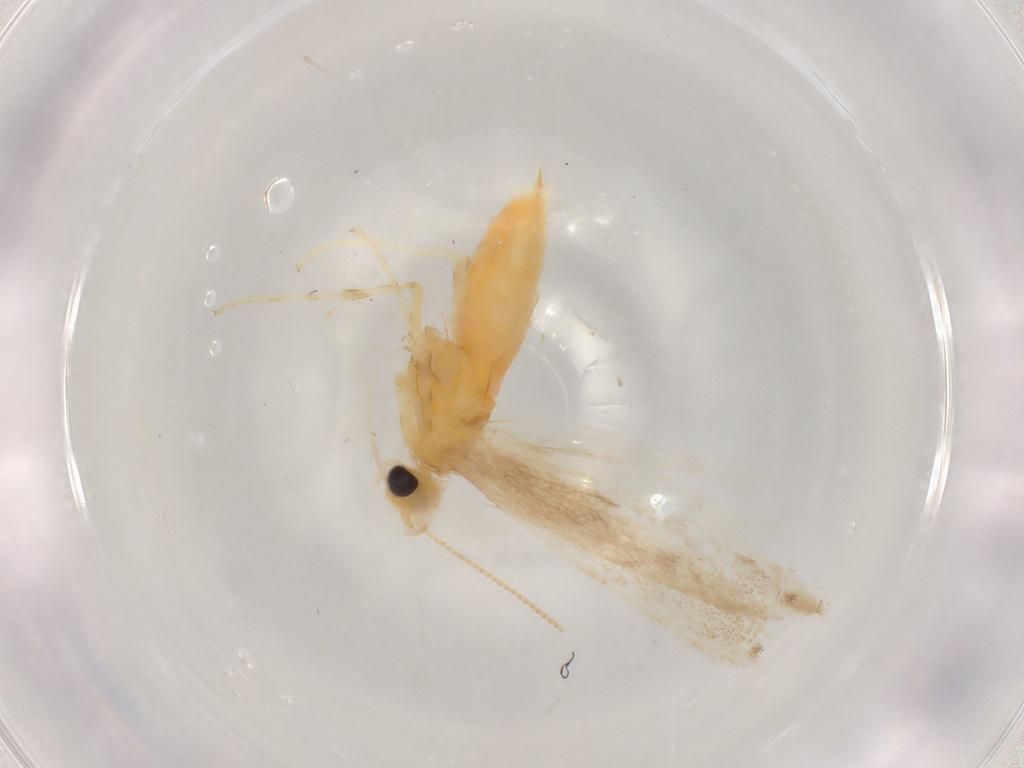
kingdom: Animalia
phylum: Arthropoda
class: Insecta
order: Lepidoptera
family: Gracillariidae
